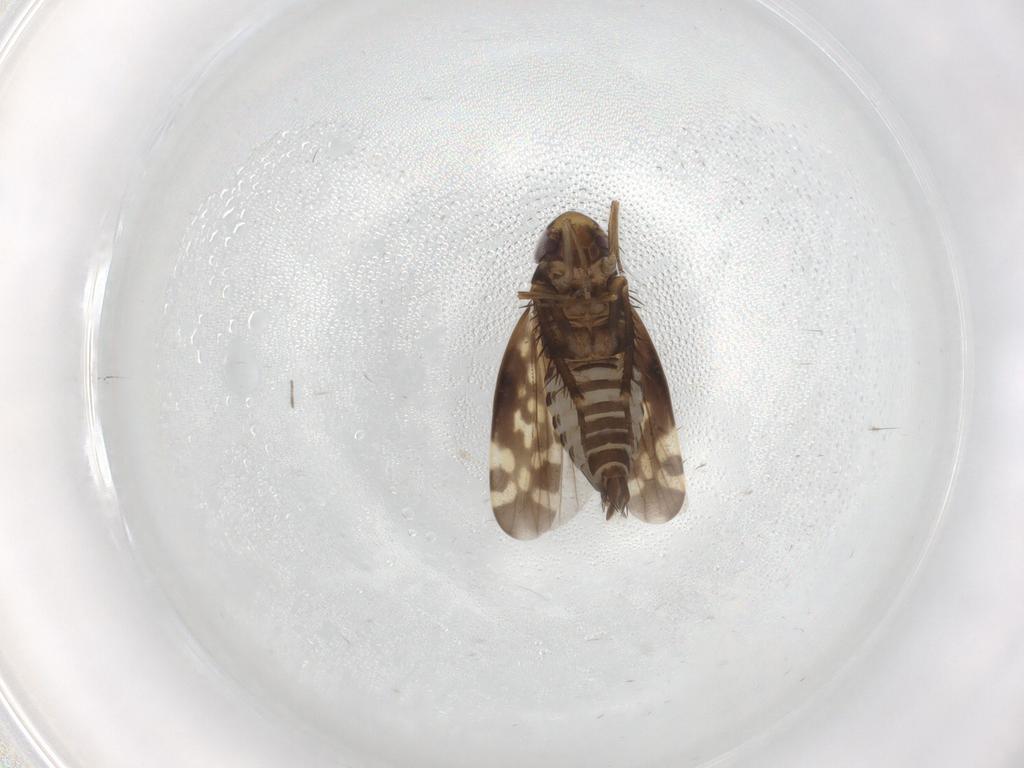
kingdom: Animalia
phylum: Arthropoda
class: Insecta
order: Hemiptera
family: Cicadellidae
